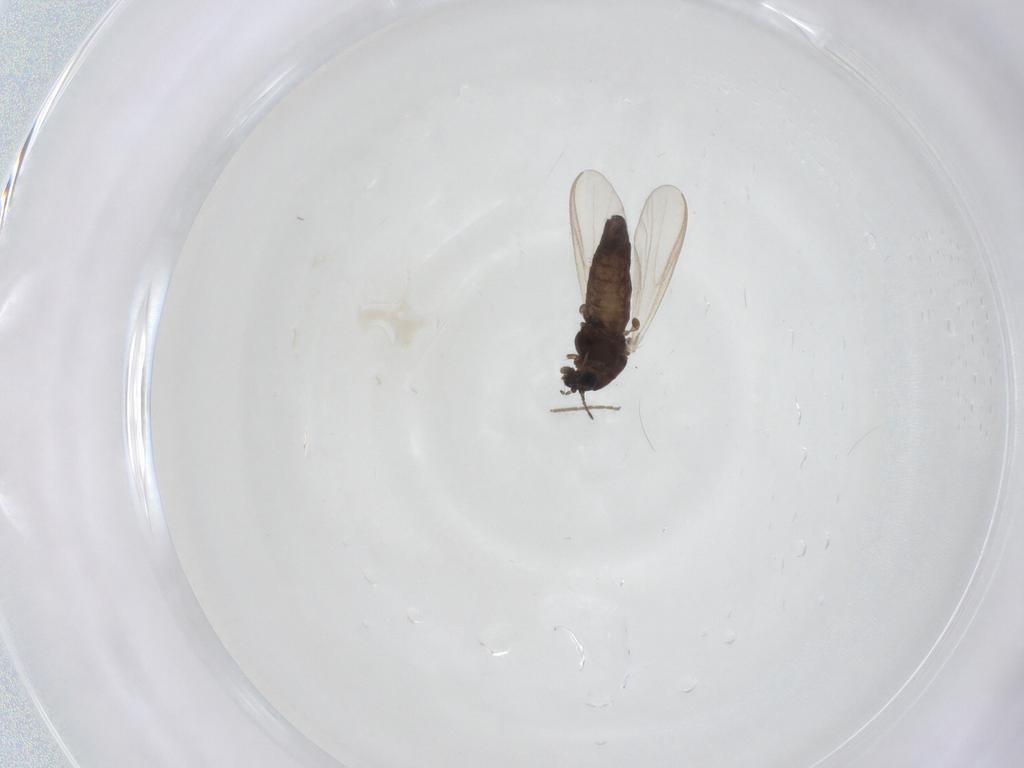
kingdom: Animalia
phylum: Arthropoda
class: Insecta
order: Diptera
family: Chironomidae
